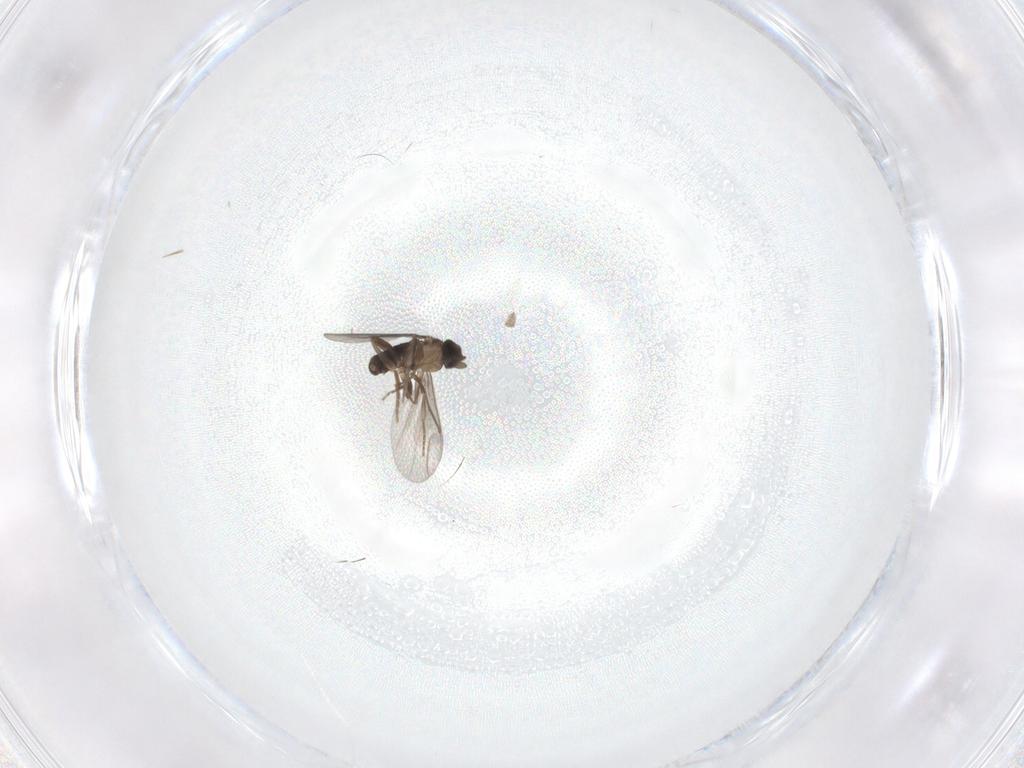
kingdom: Animalia
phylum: Arthropoda
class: Insecta
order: Diptera
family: Cecidomyiidae
